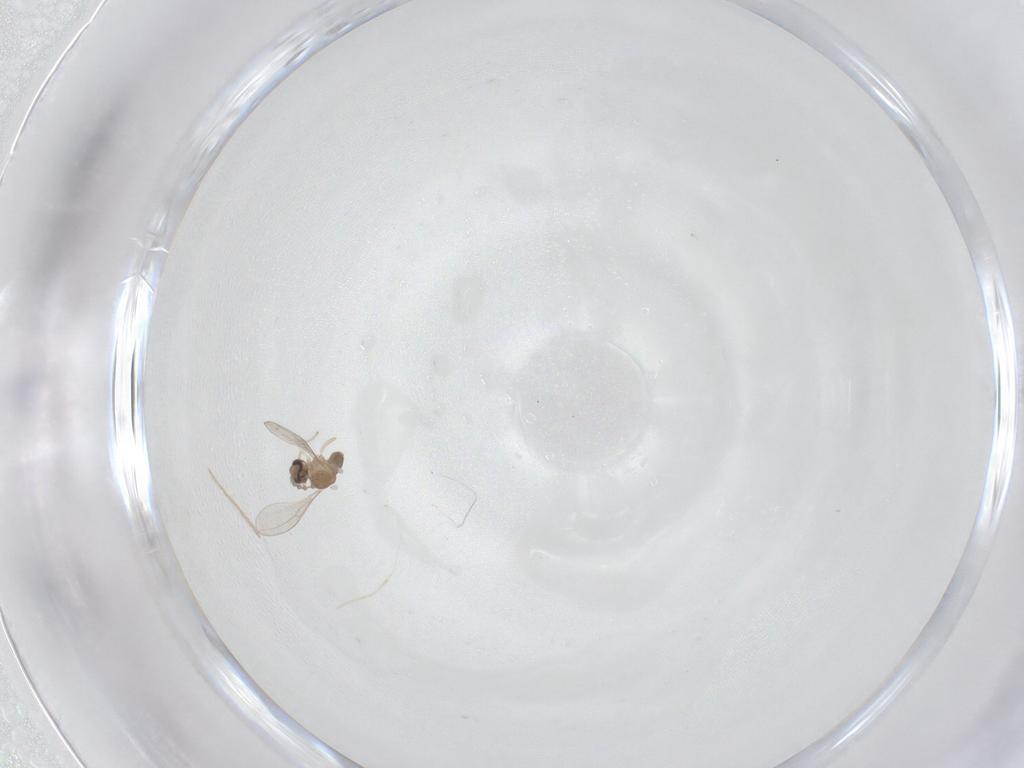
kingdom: Animalia
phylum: Arthropoda
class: Insecta
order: Diptera
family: Cecidomyiidae
